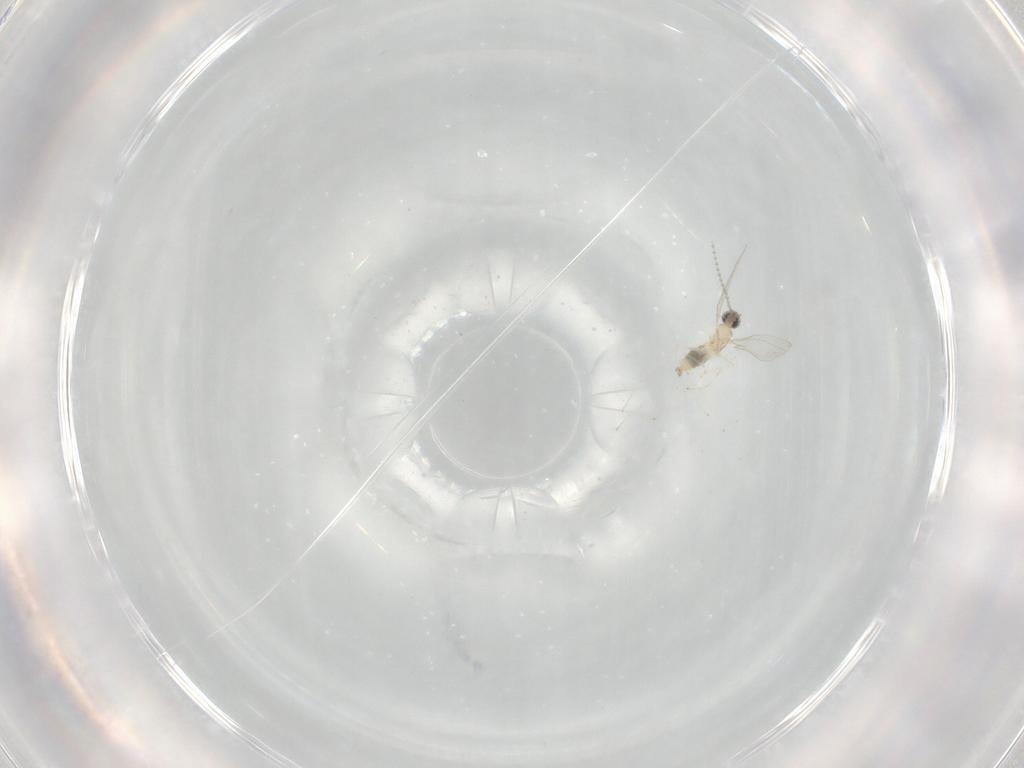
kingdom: Animalia
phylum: Arthropoda
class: Insecta
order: Diptera
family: Cecidomyiidae
